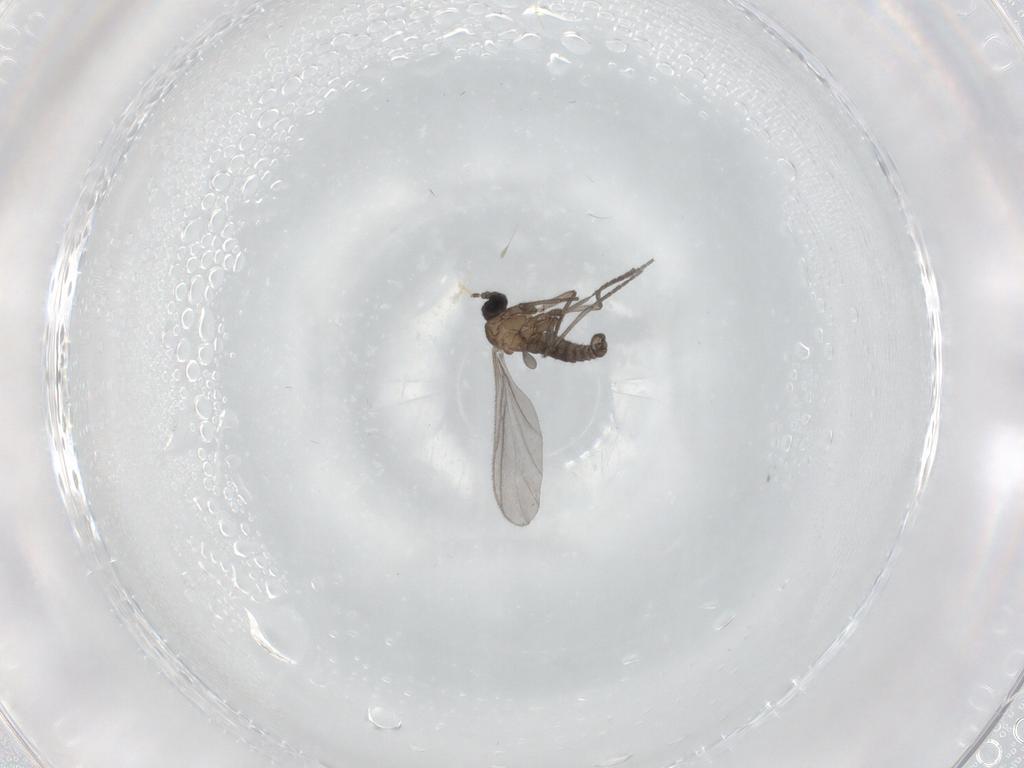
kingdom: Animalia
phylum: Arthropoda
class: Insecta
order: Diptera
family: Sciaridae
